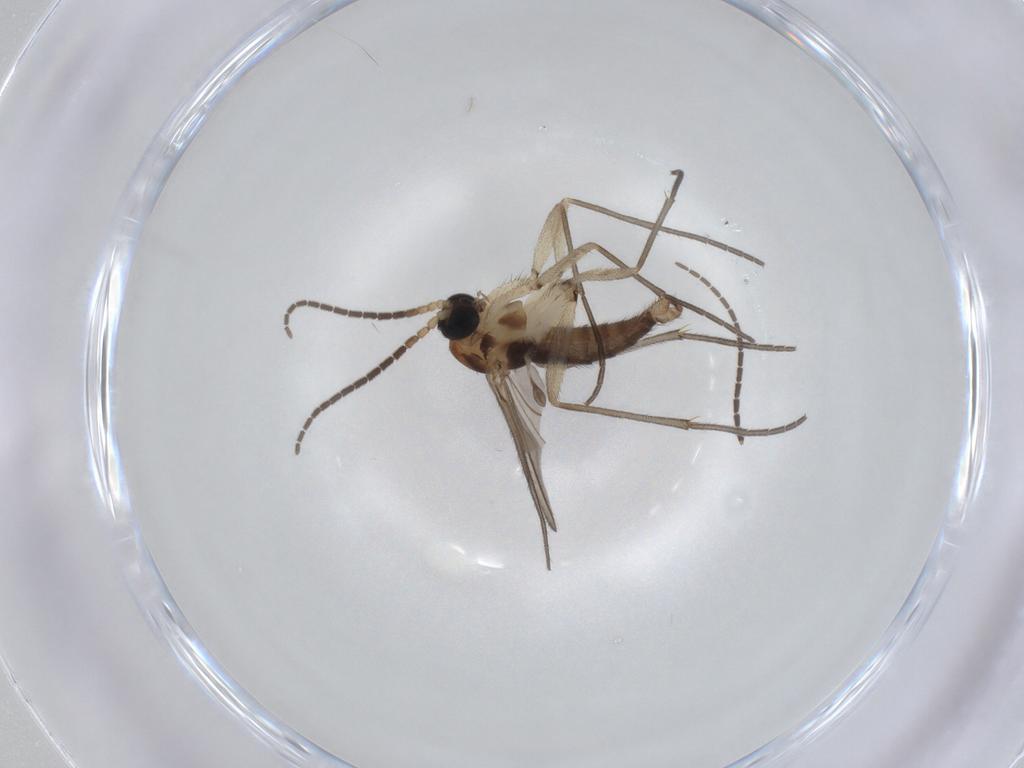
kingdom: Animalia
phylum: Arthropoda
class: Insecta
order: Diptera
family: Sciaridae
